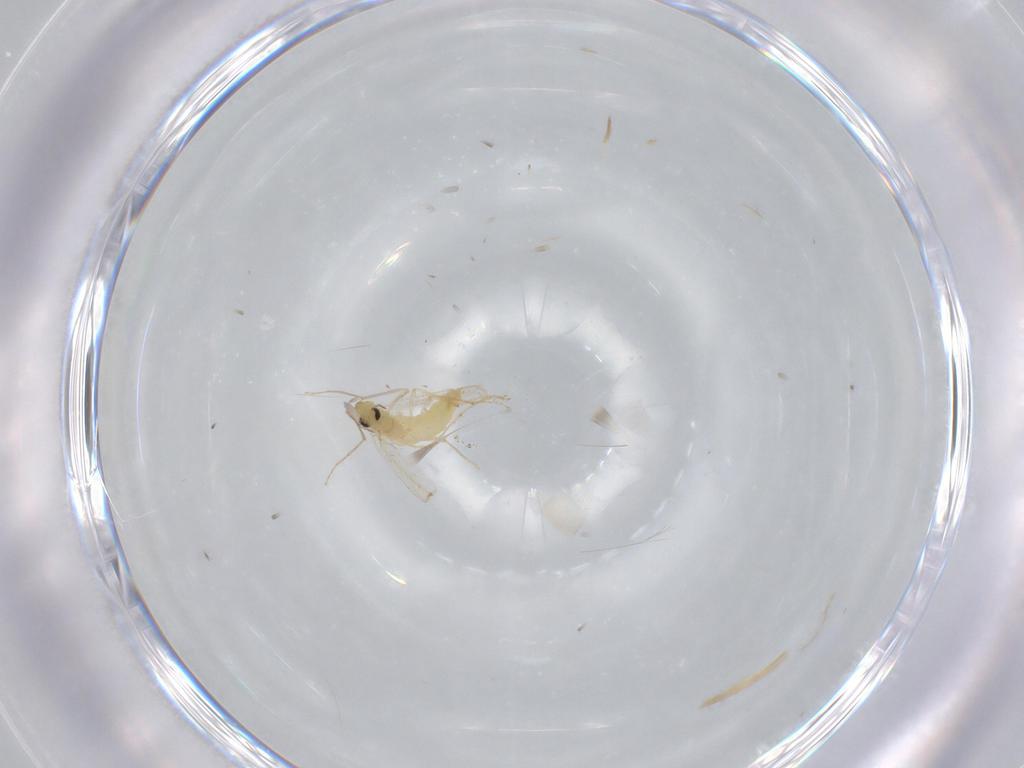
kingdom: Animalia
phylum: Arthropoda
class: Insecta
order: Diptera
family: Chironomidae
